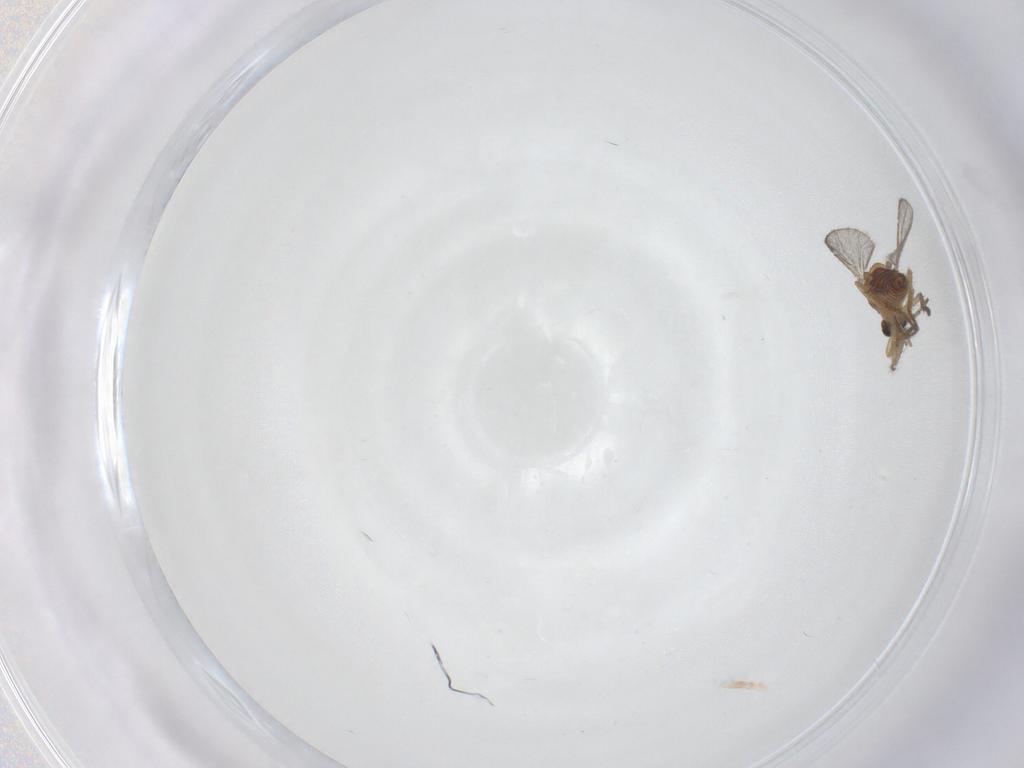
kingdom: Animalia
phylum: Arthropoda
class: Insecta
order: Diptera
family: Ceratopogonidae
